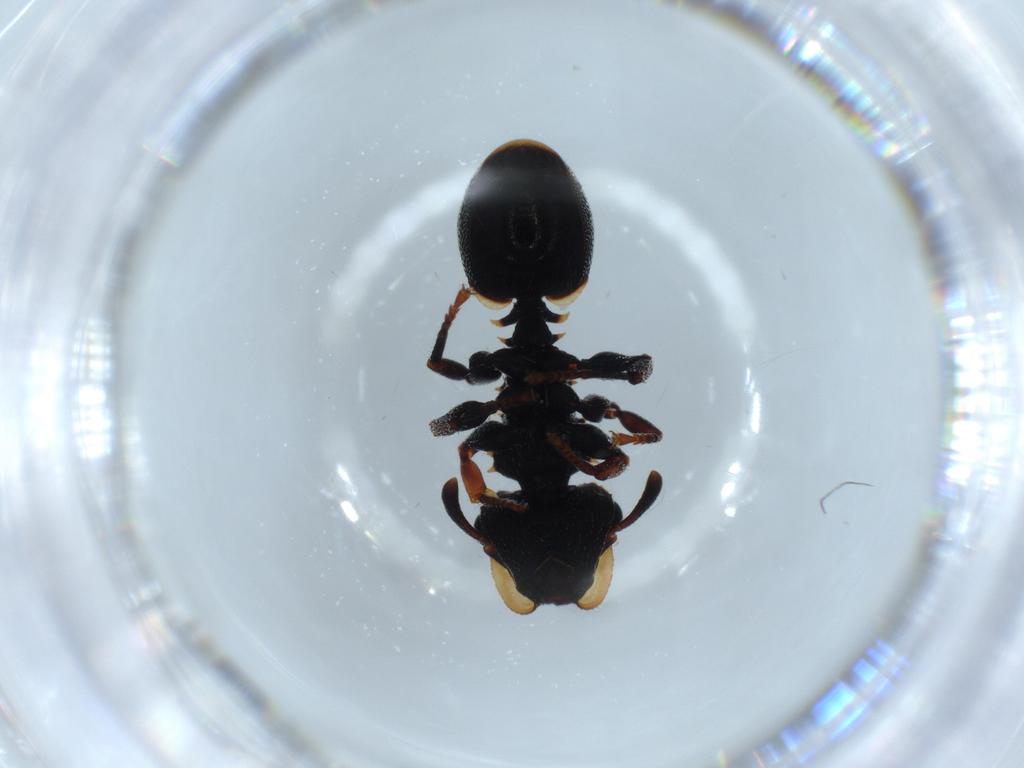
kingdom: Animalia
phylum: Arthropoda
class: Insecta
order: Hymenoptera
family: Formicidae
